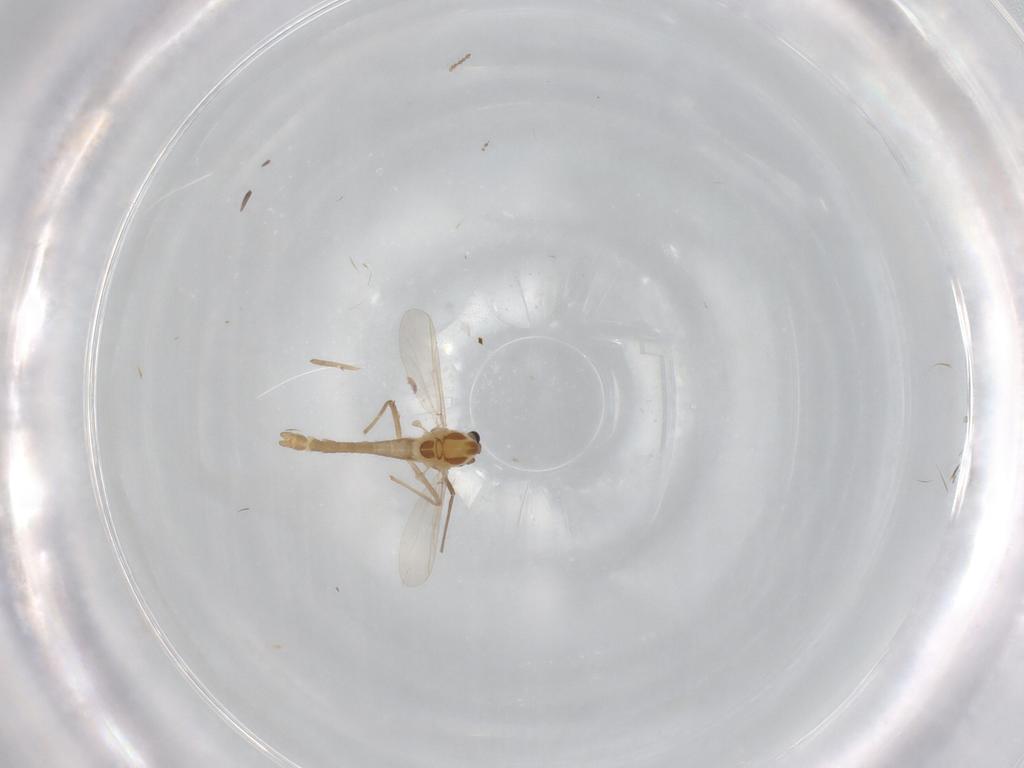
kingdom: Animalia
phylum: Arthropoda
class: Insecta
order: Diptera
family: Chironomidae
